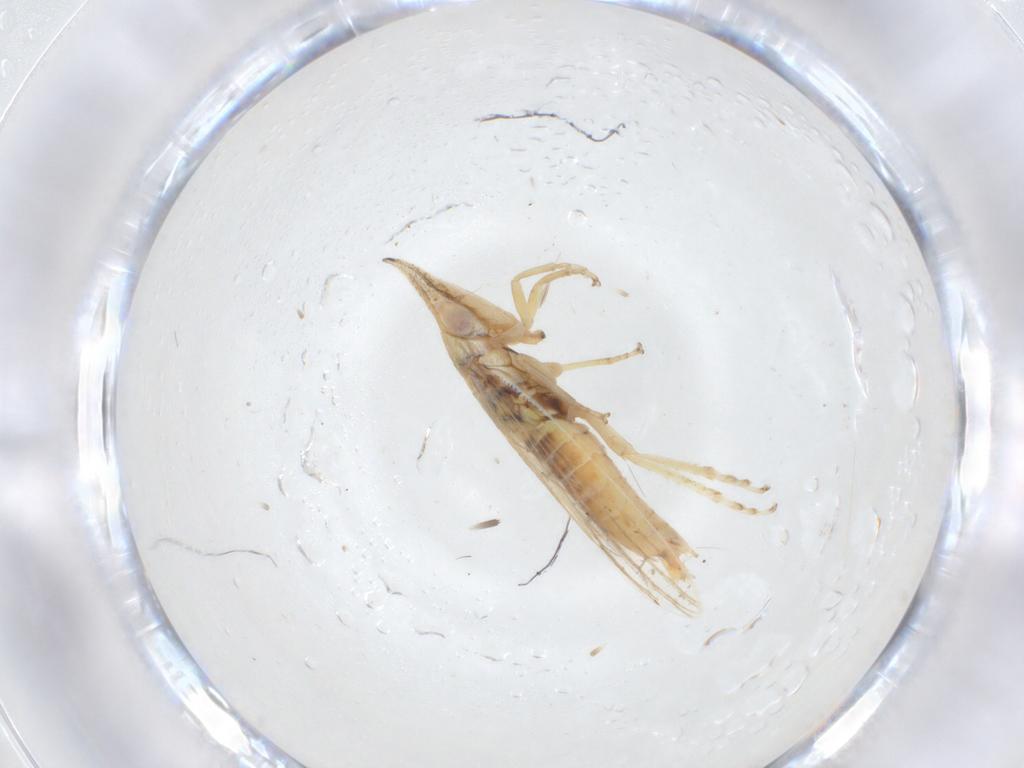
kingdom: Animalia
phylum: Arthropoda
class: Insecta
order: Hemiptera
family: Cicadellidae
